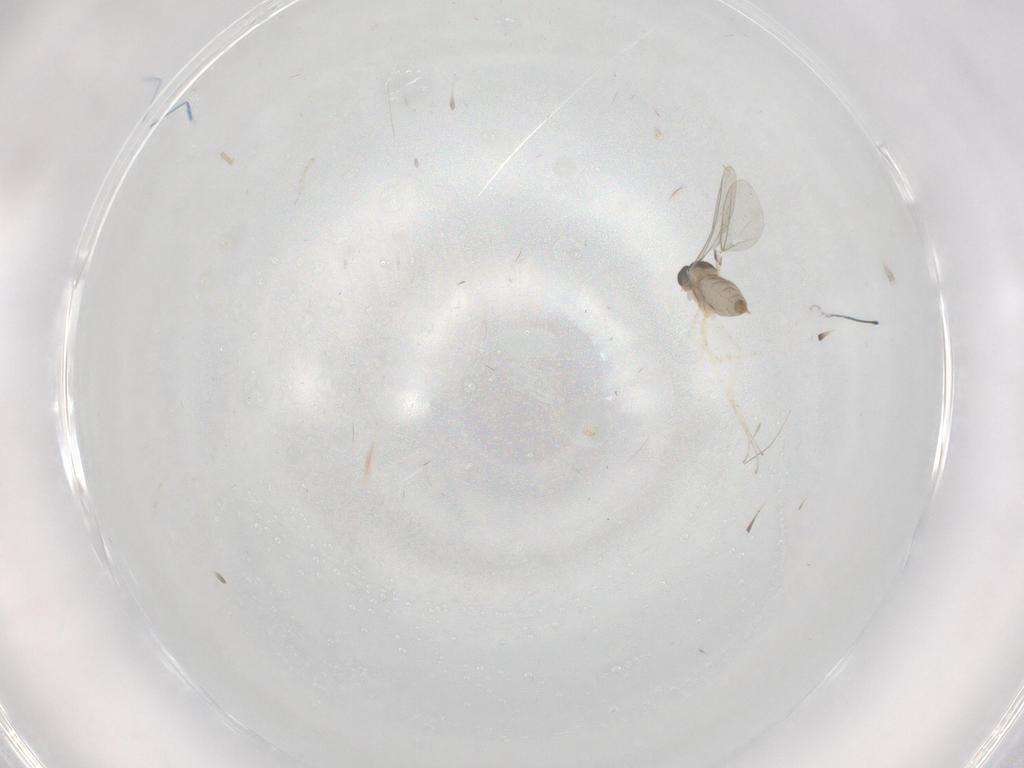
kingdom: Animalia
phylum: Arthropoda
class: Insecta
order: Diptera
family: Cecidomyiidae
